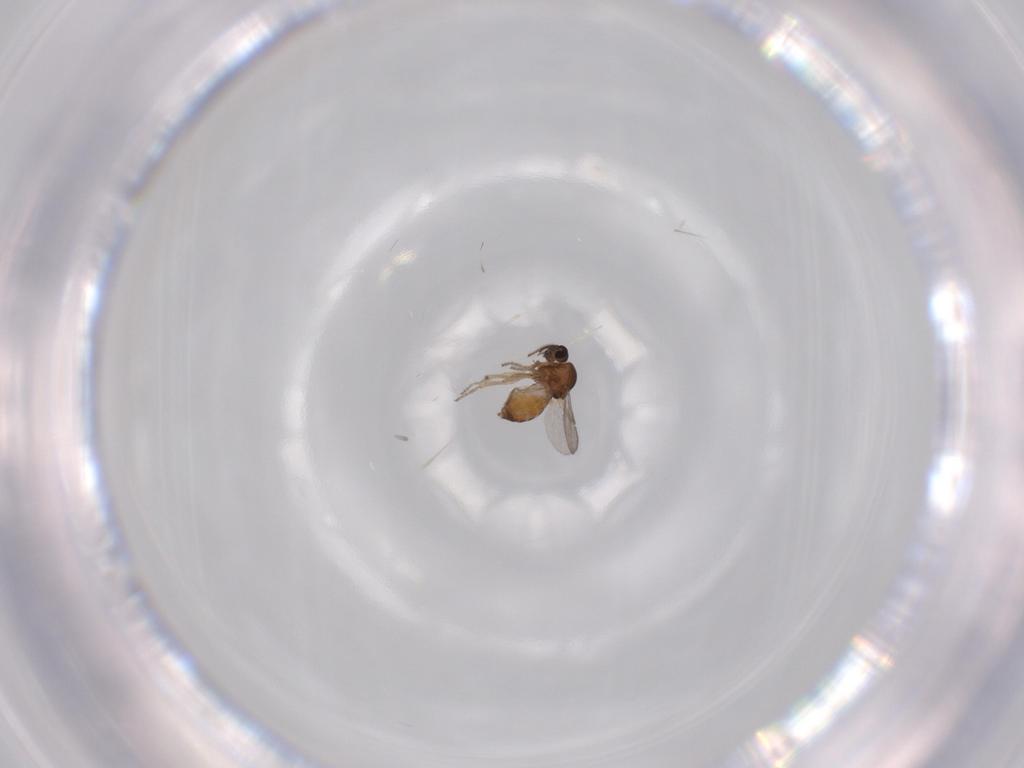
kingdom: Animalia
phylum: Arthropoda
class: Insecta
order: Diptera
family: Ceratopogonidae
